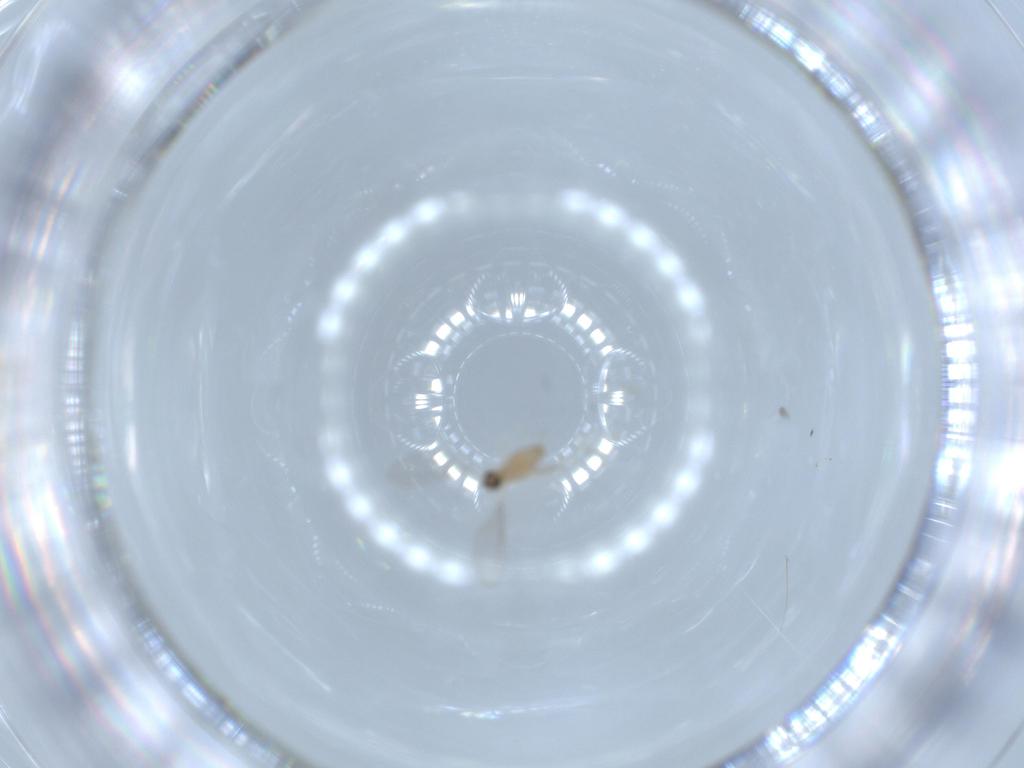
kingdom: Animalia
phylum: Arthropoda
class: Insecta
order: Diptera
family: Cecidomyiidae
